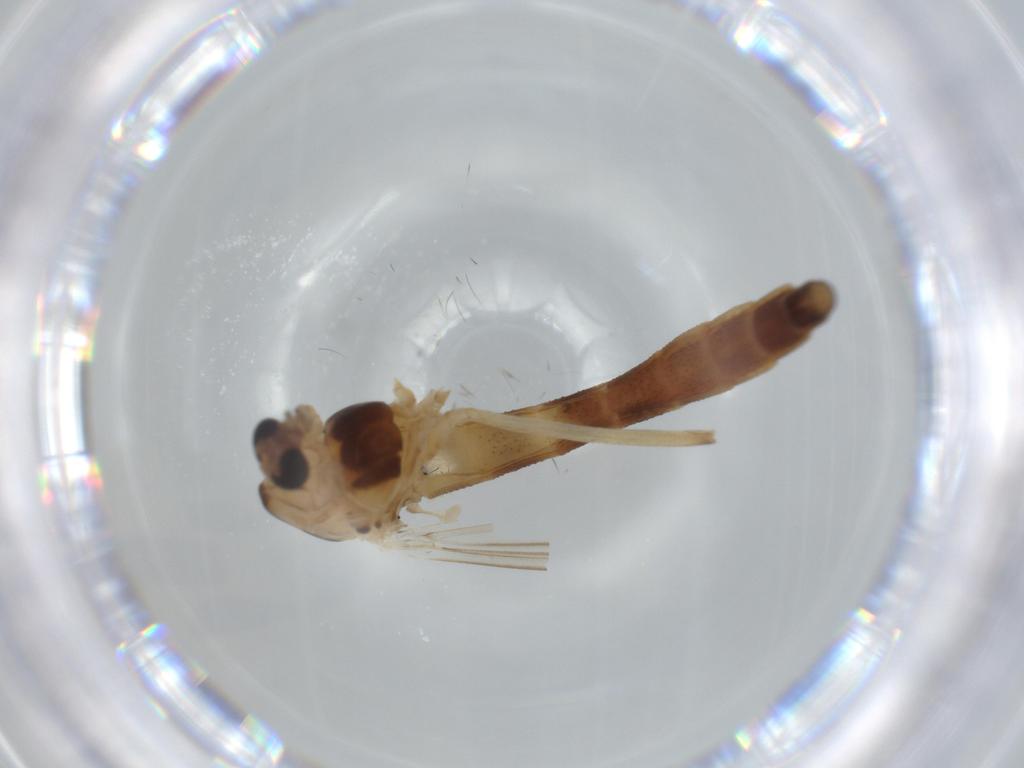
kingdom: Animalia
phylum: Arthropoda
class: Insecta
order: Diptera
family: Chironomidae
